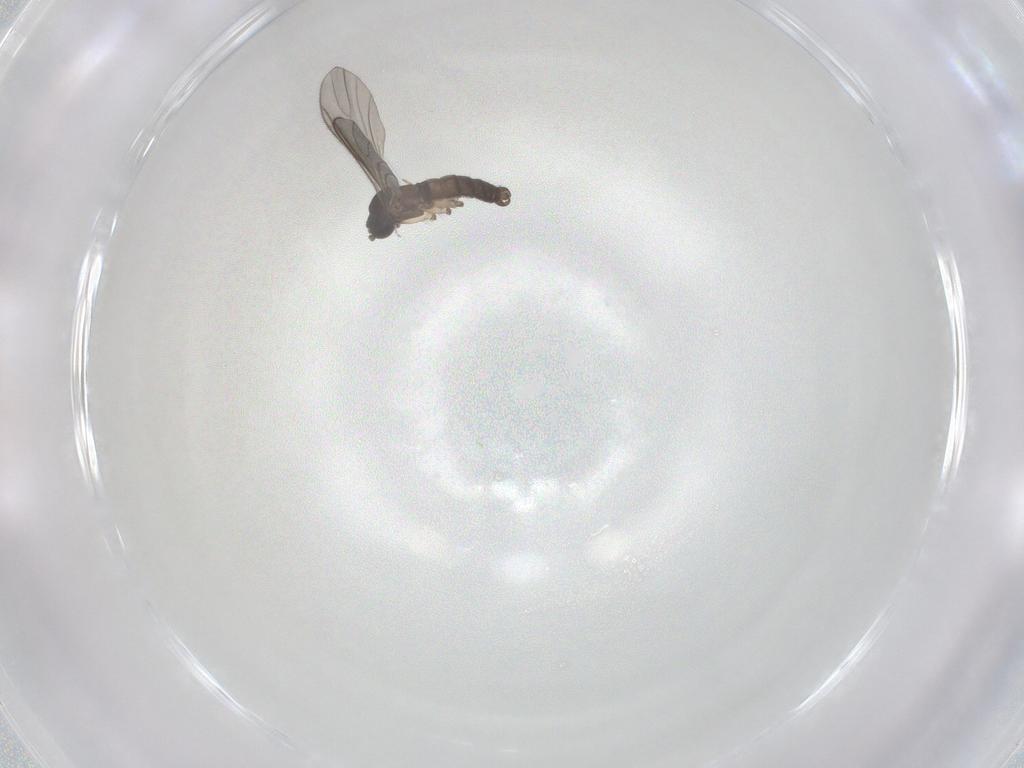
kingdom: Animalia
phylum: Arthropoda
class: Insecta
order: Diptera
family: Sciaridae
